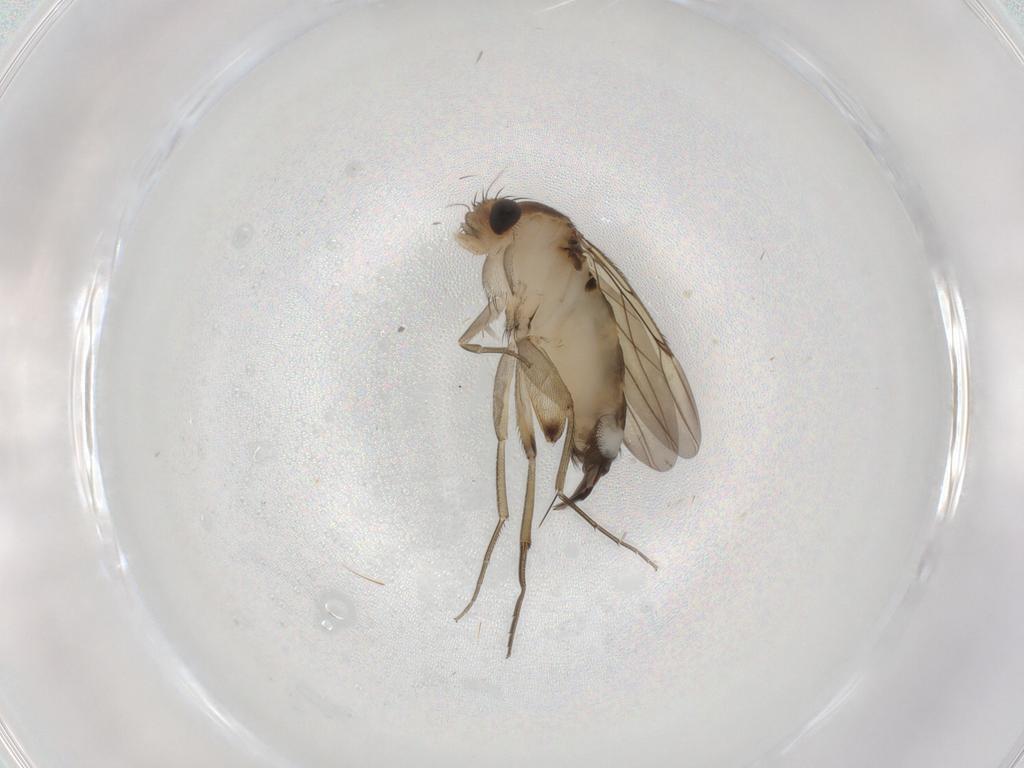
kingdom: Animalia
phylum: Arthropoda
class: Insecta
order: Diptera
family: Phoridae
